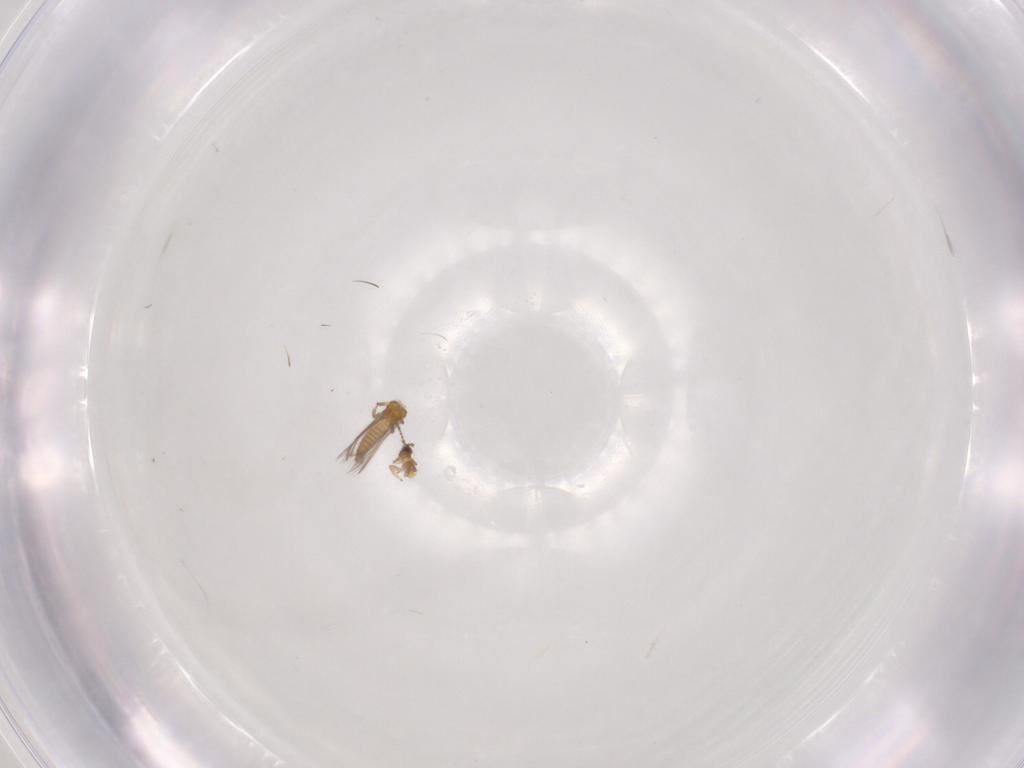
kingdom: Animalia
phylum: Arthropoda
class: Insecta
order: Thysanoptera
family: Thripidae
